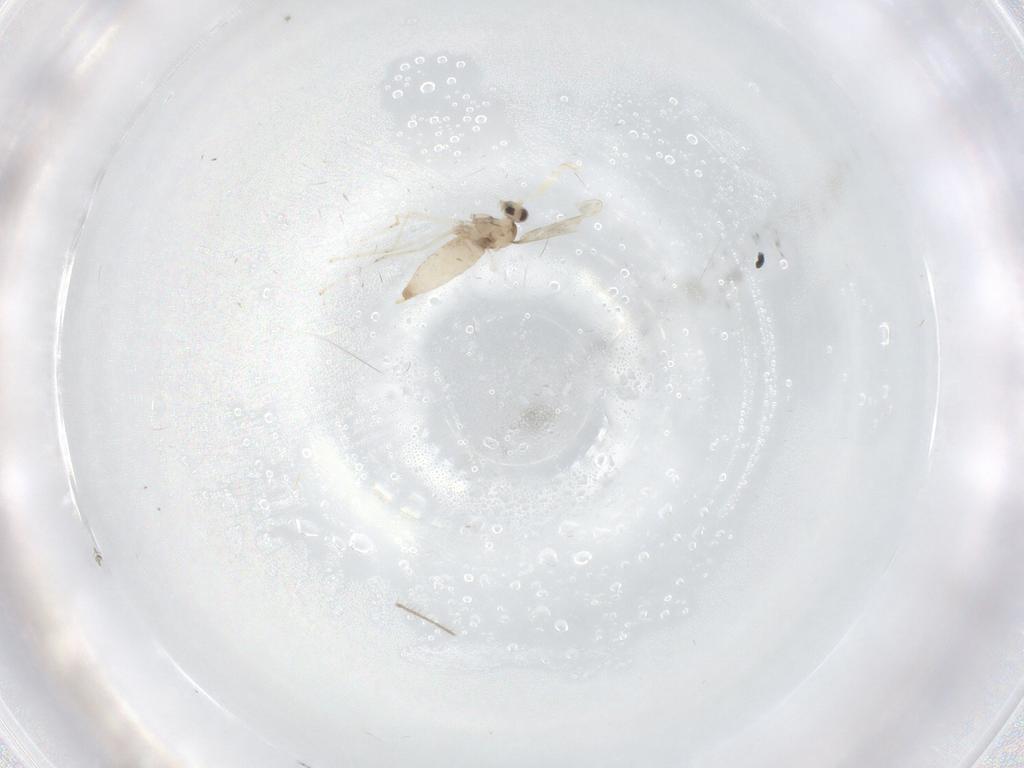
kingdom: Animalia
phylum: Arthropoda
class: Insecta
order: Diptera
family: Cecidomyiidae
